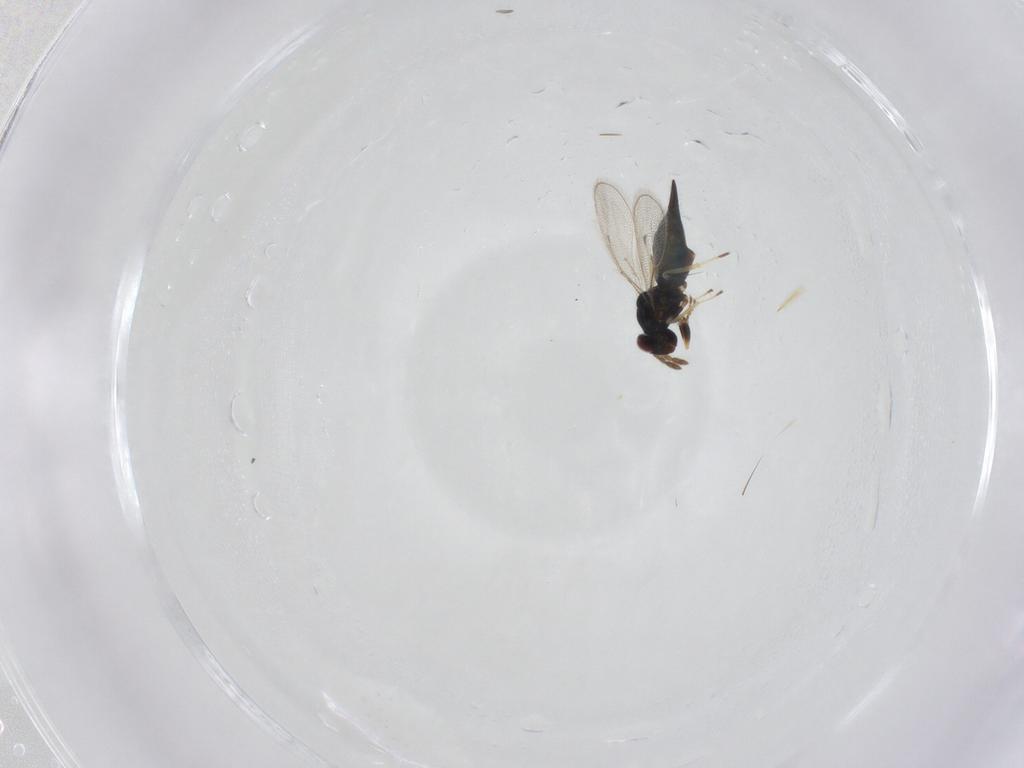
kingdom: Animalia
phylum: Arthropoda
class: Insecta
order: Hymenoptera
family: Eulophidae
